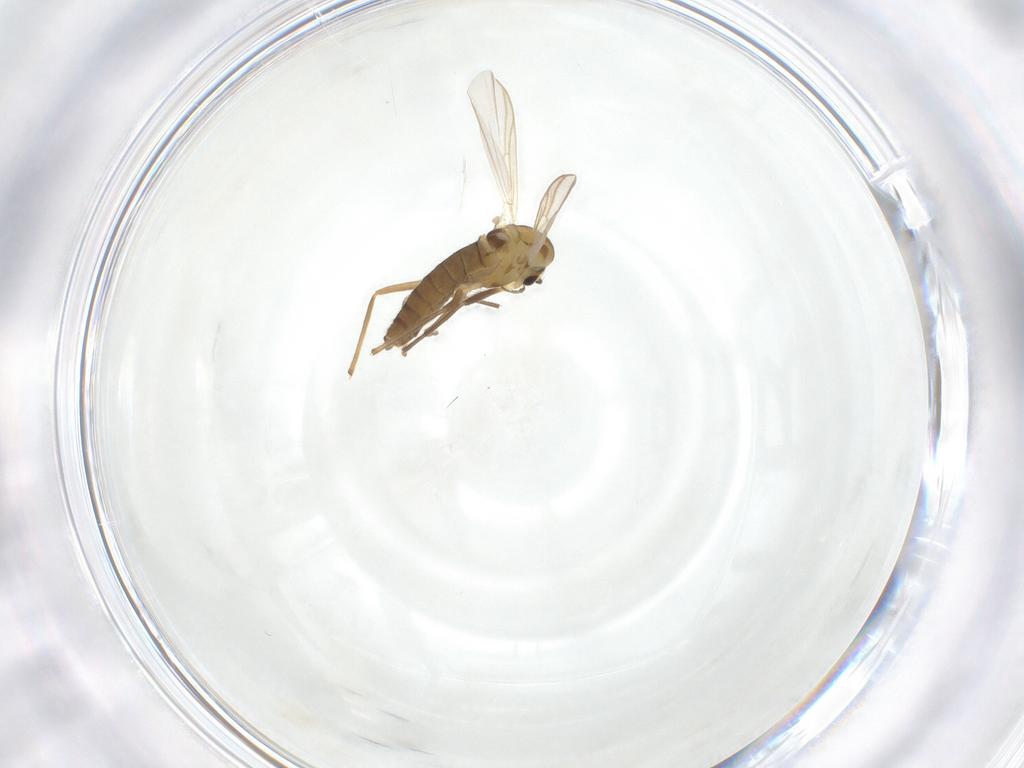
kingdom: Animalia
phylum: Arthropoda
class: Insecta
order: Diptera
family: Chironomidae
